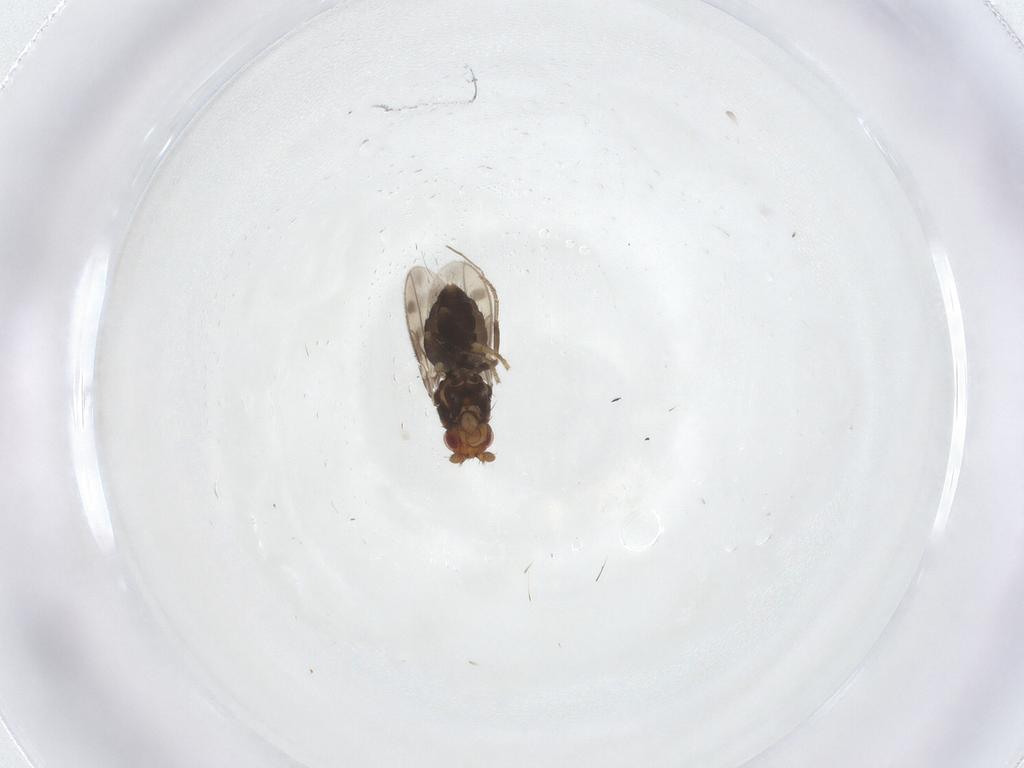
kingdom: Animalia
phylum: Arthropoda
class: Insecta
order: Diptera
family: Sphaeroceridae
